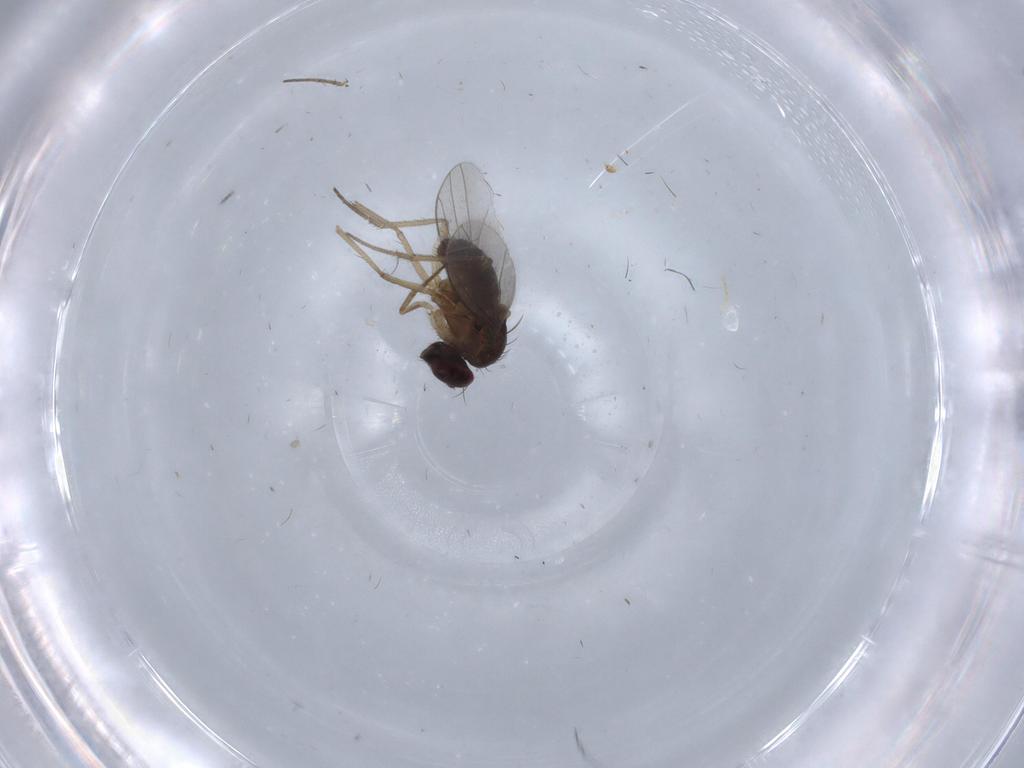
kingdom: Animalia
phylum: Arthropoda
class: Insecta
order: Diptera
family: Dolichopodidae
